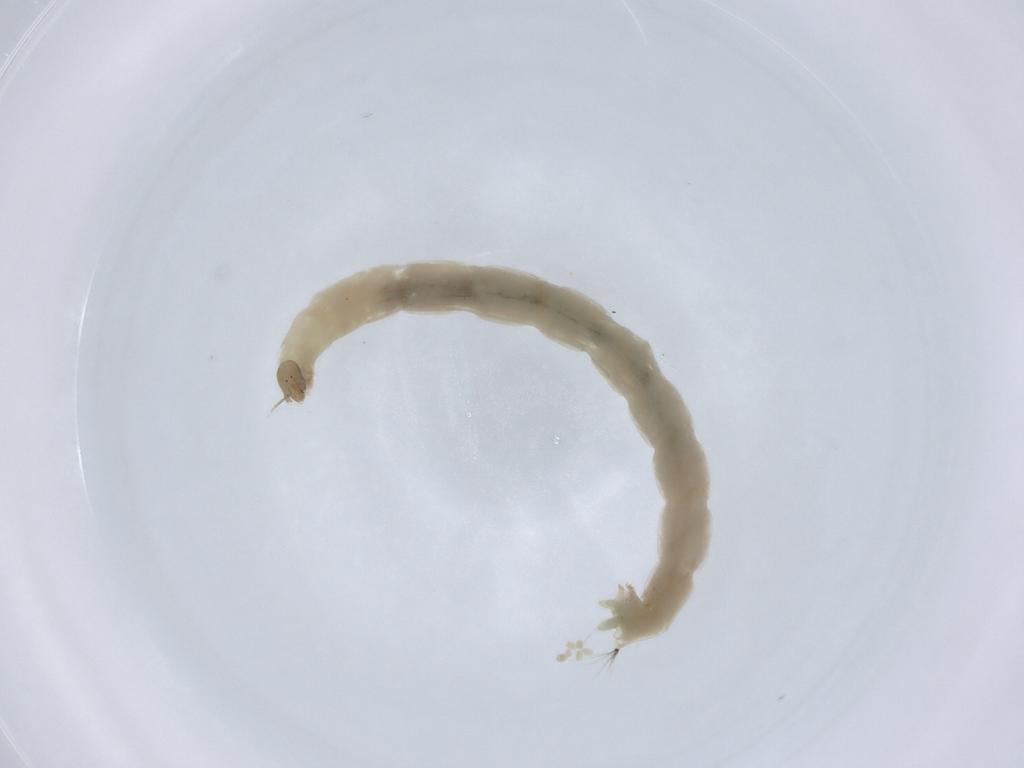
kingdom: Animalia
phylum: Arthropoda
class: Insecta
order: Diptera
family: Chironomidae
